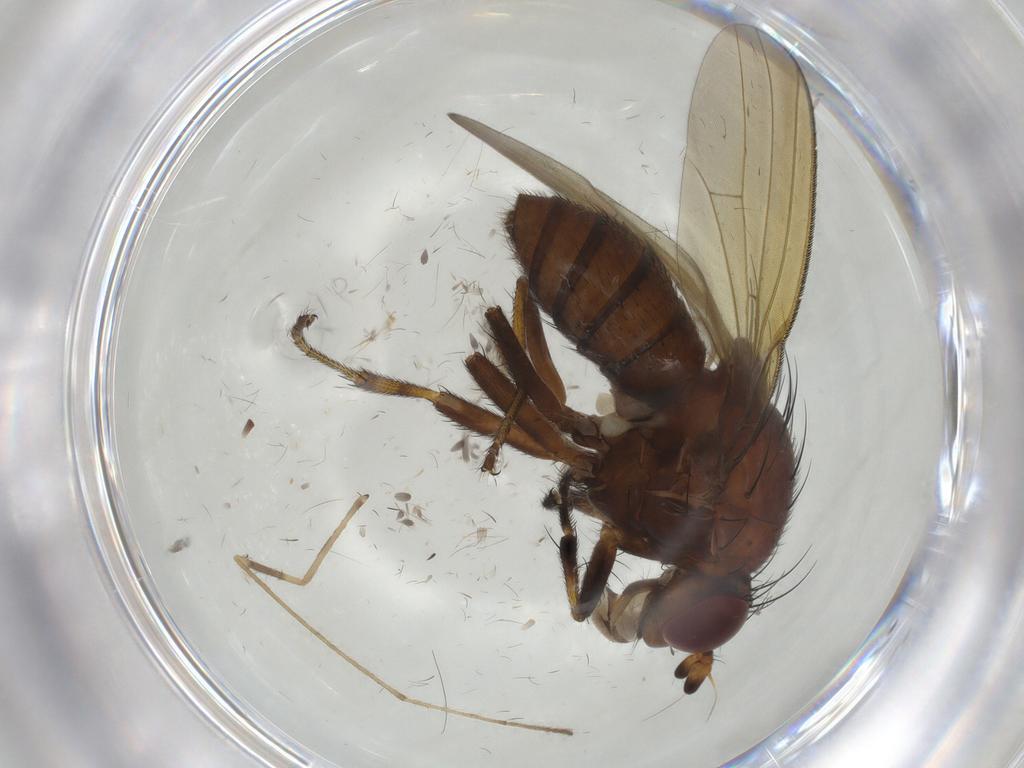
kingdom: Animalia
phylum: Arthropoda
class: Insecta
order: Diptera
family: Limoniidae
